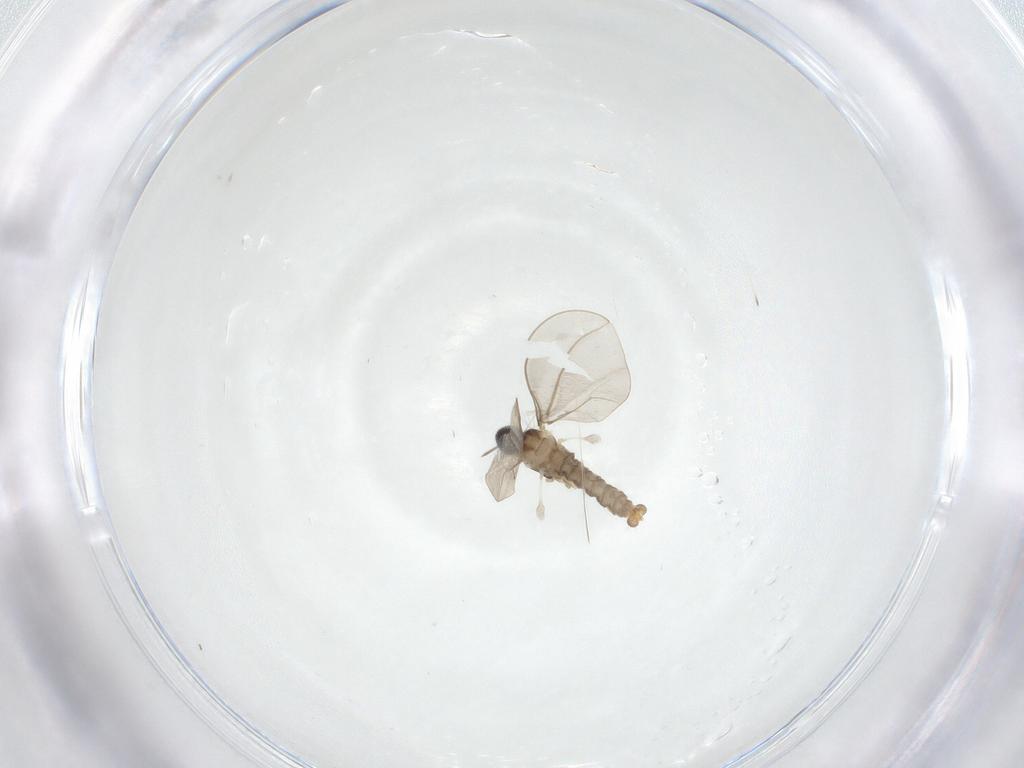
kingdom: Animalia
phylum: Arthropoda
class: Insecta
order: Diptera
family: Cecidomyiidae
